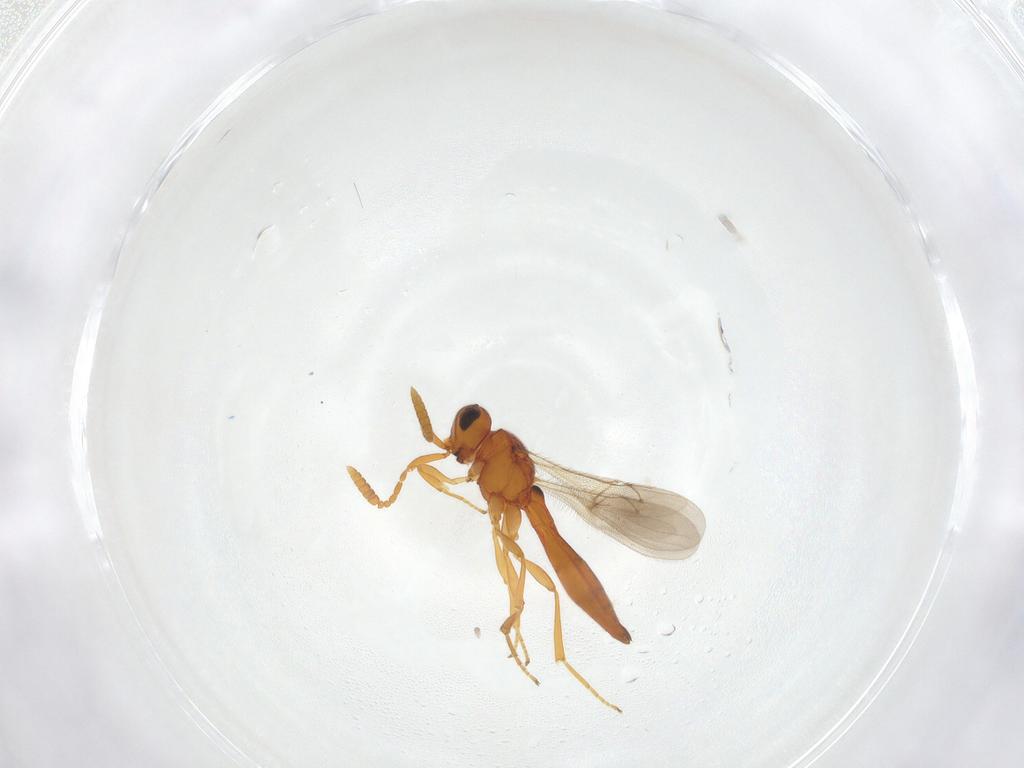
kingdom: Animalia
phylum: Arthropoda
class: Insecta
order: Hymenoptera
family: Scelionidae
